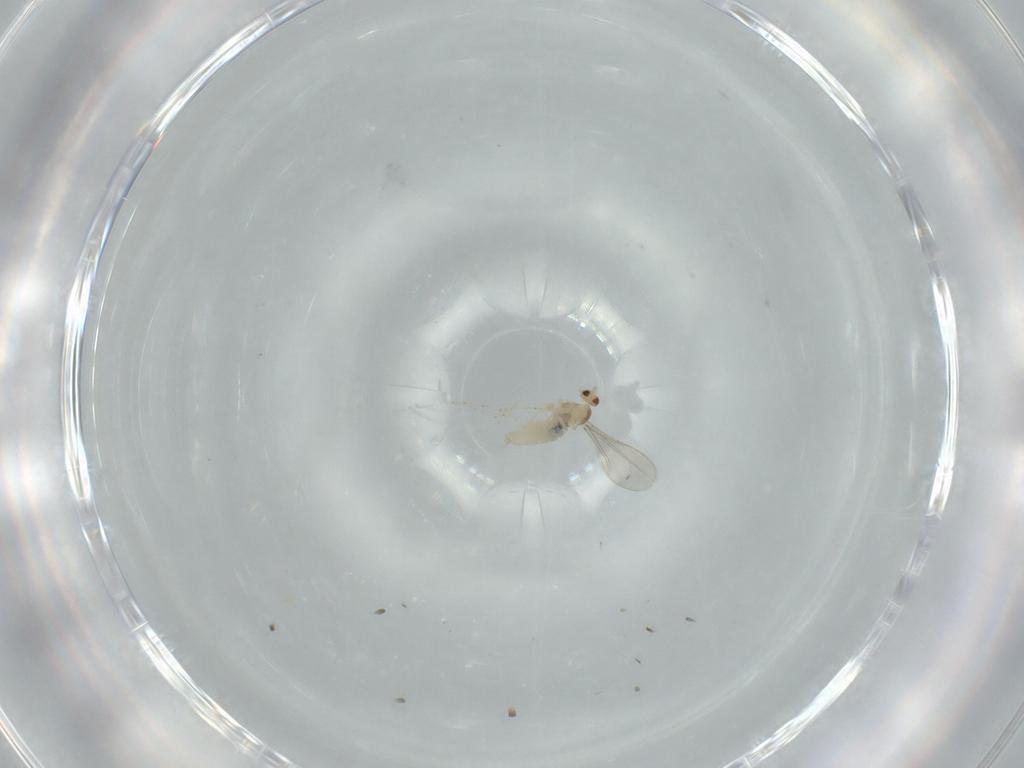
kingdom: Animalia
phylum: Arthropoda
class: Insecta
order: Diptera
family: Cecidomyiidae
